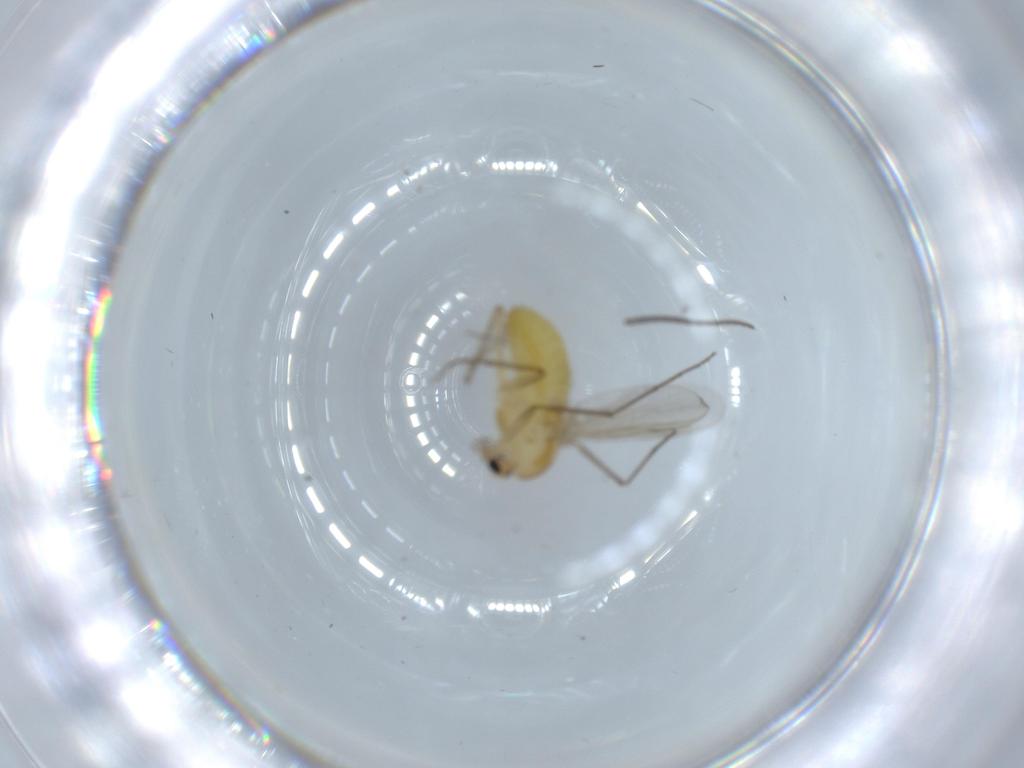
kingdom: Animalia
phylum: Arthropoda
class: Insecta
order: Diptera
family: Chironomidae
